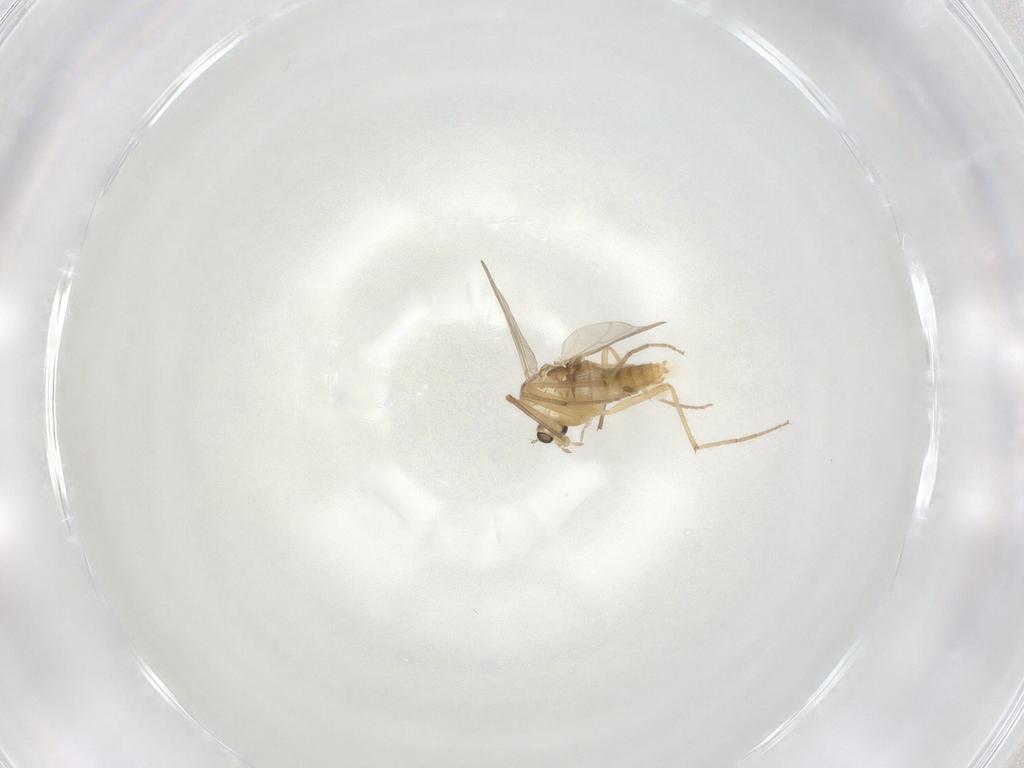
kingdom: Animalia
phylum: Arthropoda
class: Insecta
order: Diptera
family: Chironomidae
